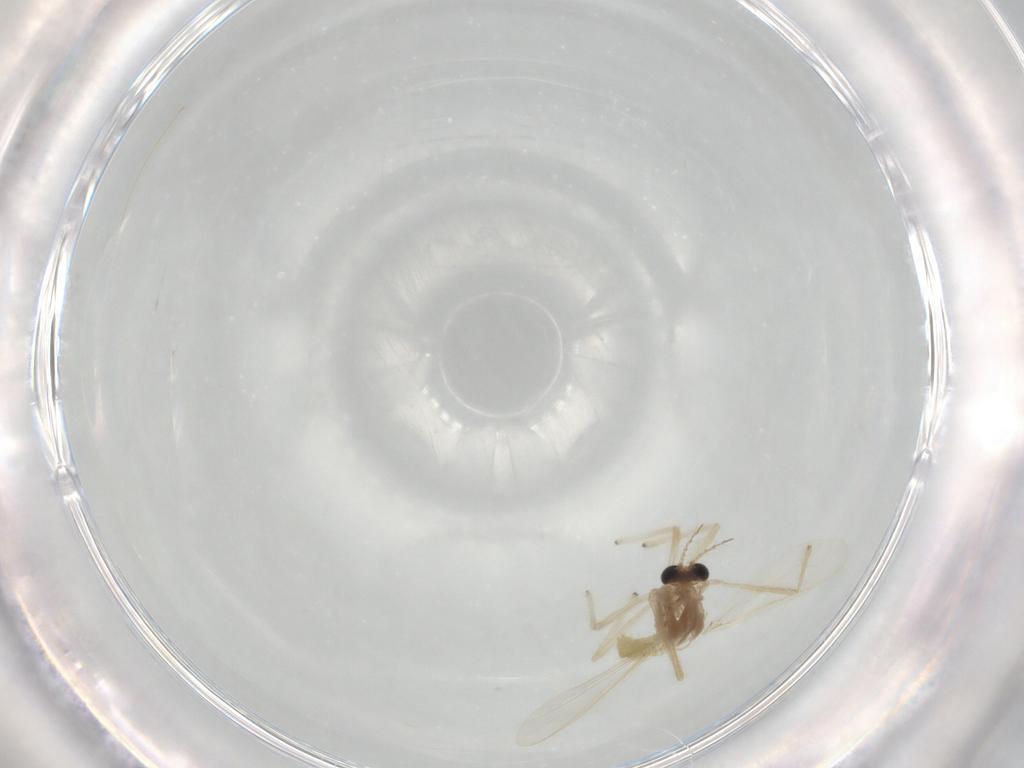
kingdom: Animalia
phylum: Arthropoda
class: Insecta
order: Diptera
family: Chironomidae
